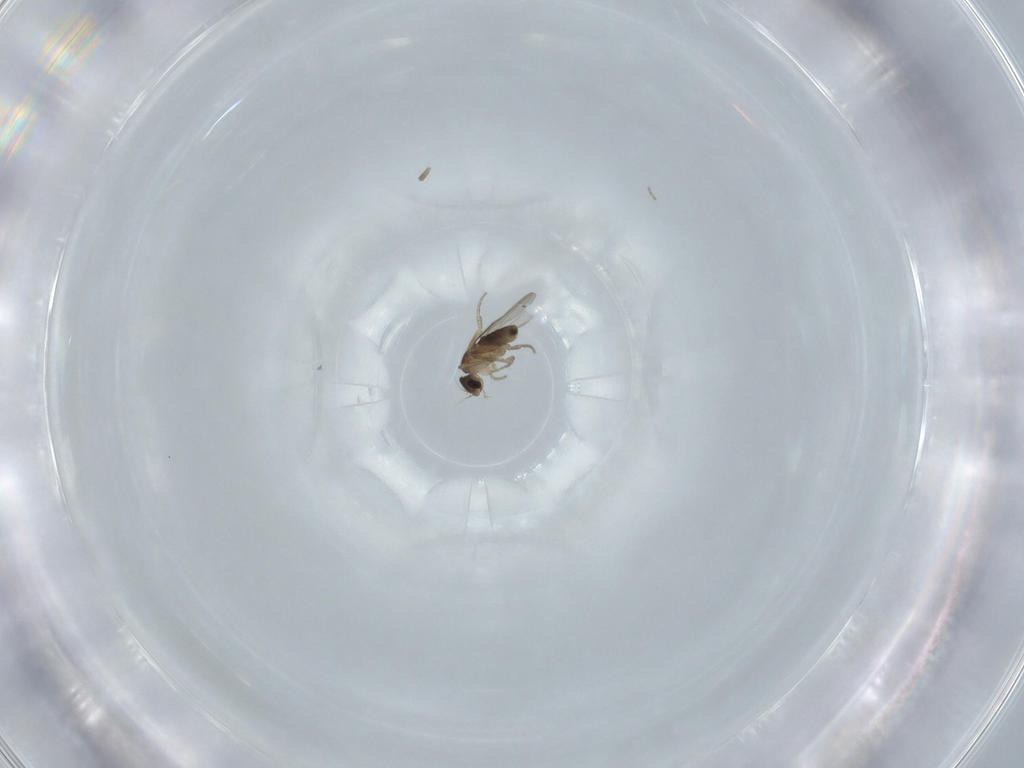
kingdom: Animalia
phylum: Arthropoda
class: Insecta
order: Diptera
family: Phoridae
